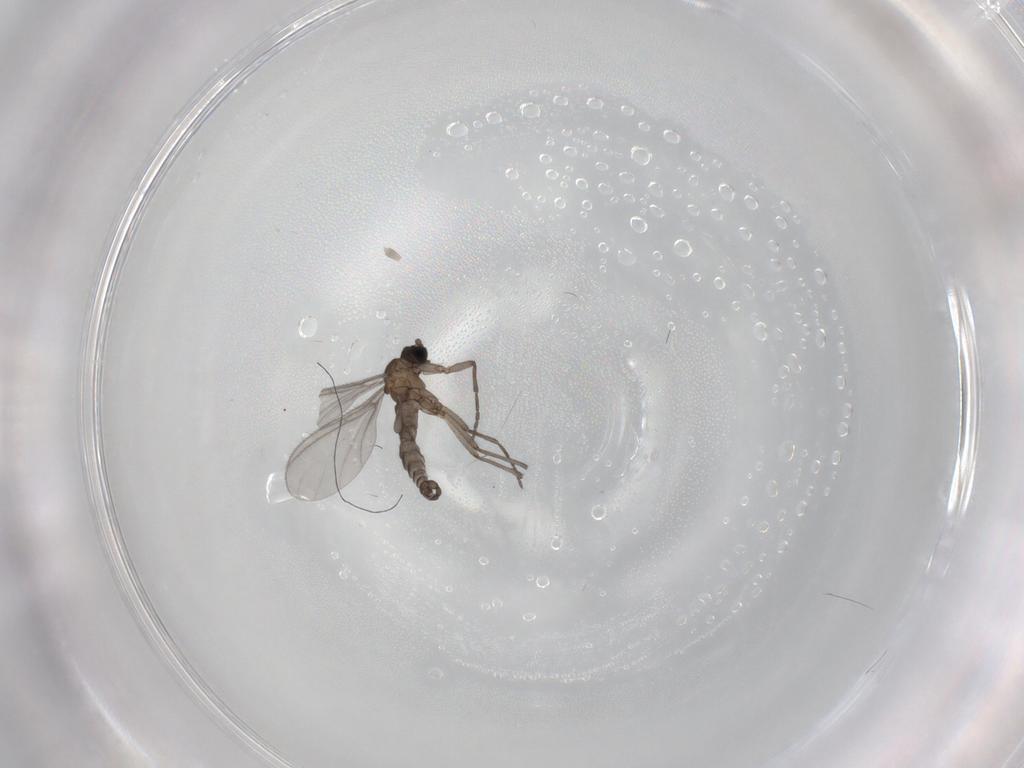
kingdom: Animalia
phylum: Arthropoda
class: Insecta
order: Diptera
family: Sciaridae
